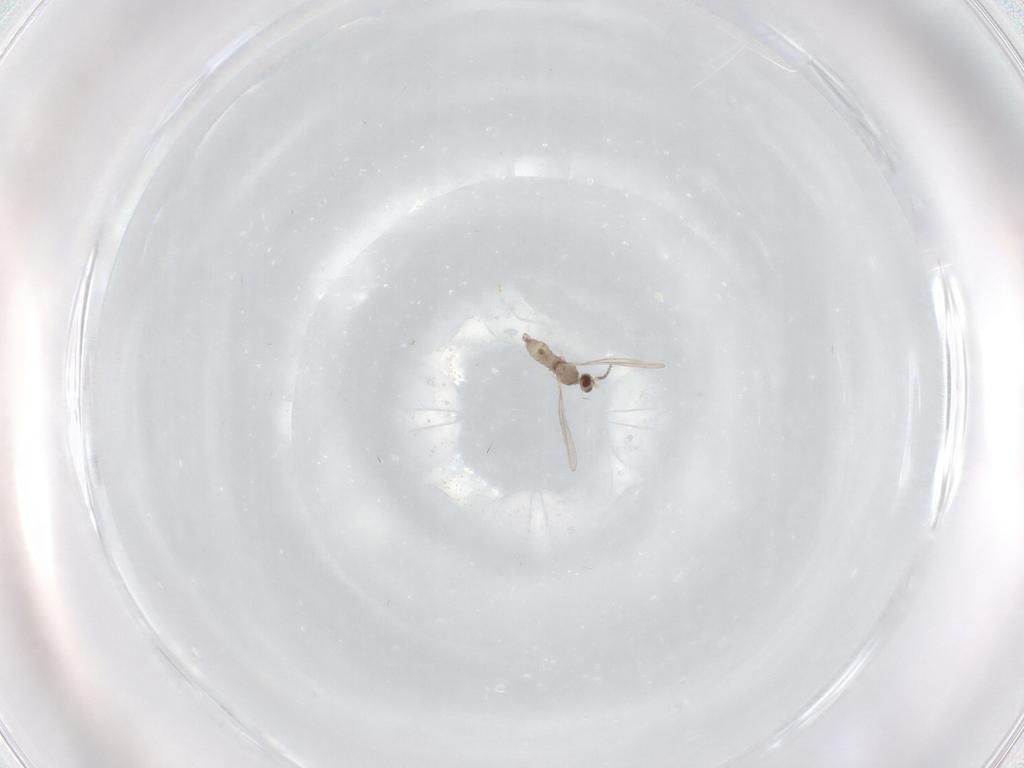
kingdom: Animalia
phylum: Arthropoda
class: Insecta
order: Diptera
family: Cecidomyiidae
